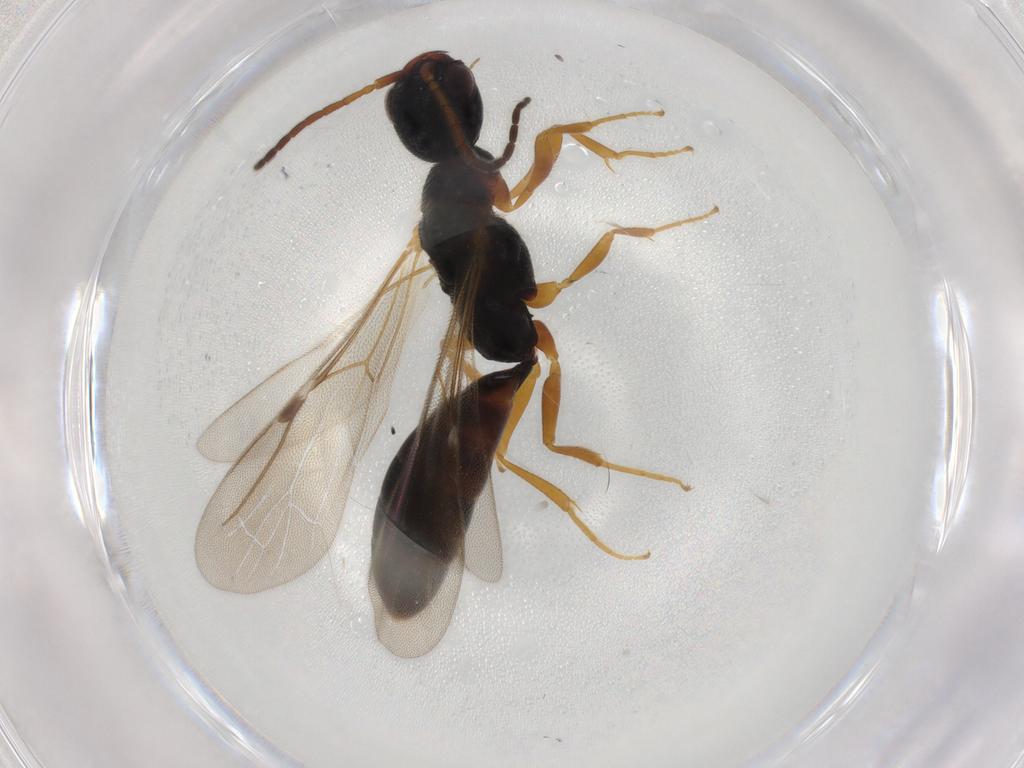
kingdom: Animalia
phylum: Arthropoda
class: Insecta
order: Hymenoptera
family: Bethylidae
